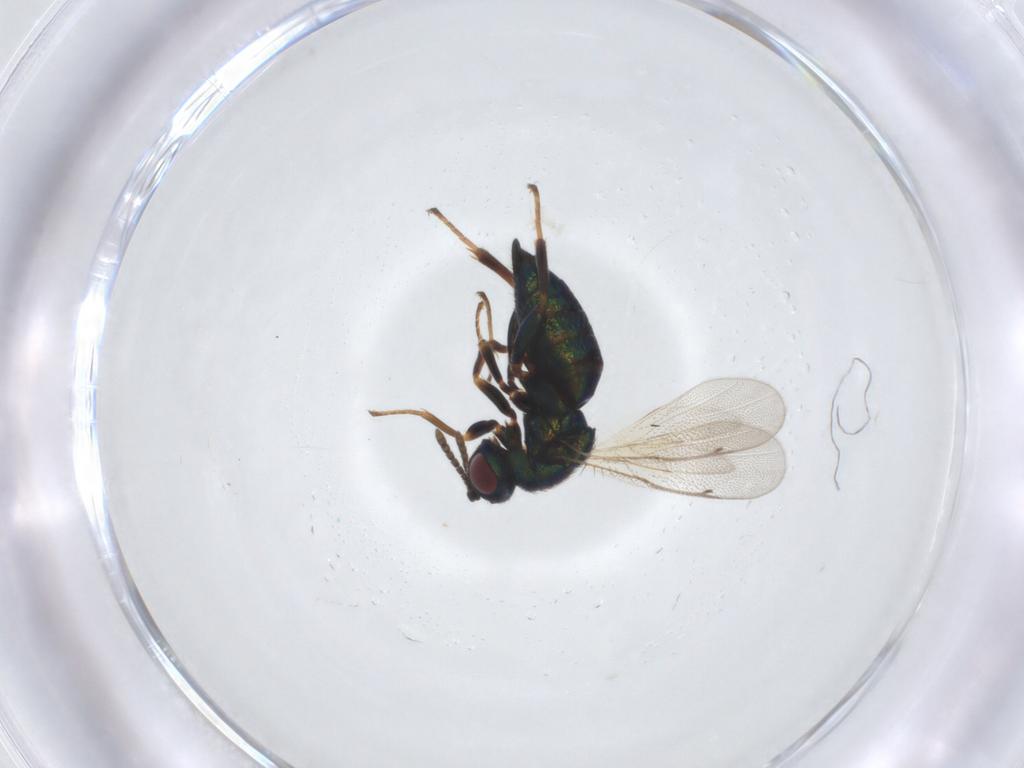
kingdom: Animalia
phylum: Arthropoda
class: Insecta
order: Hymenoptera
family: Ormyridae
